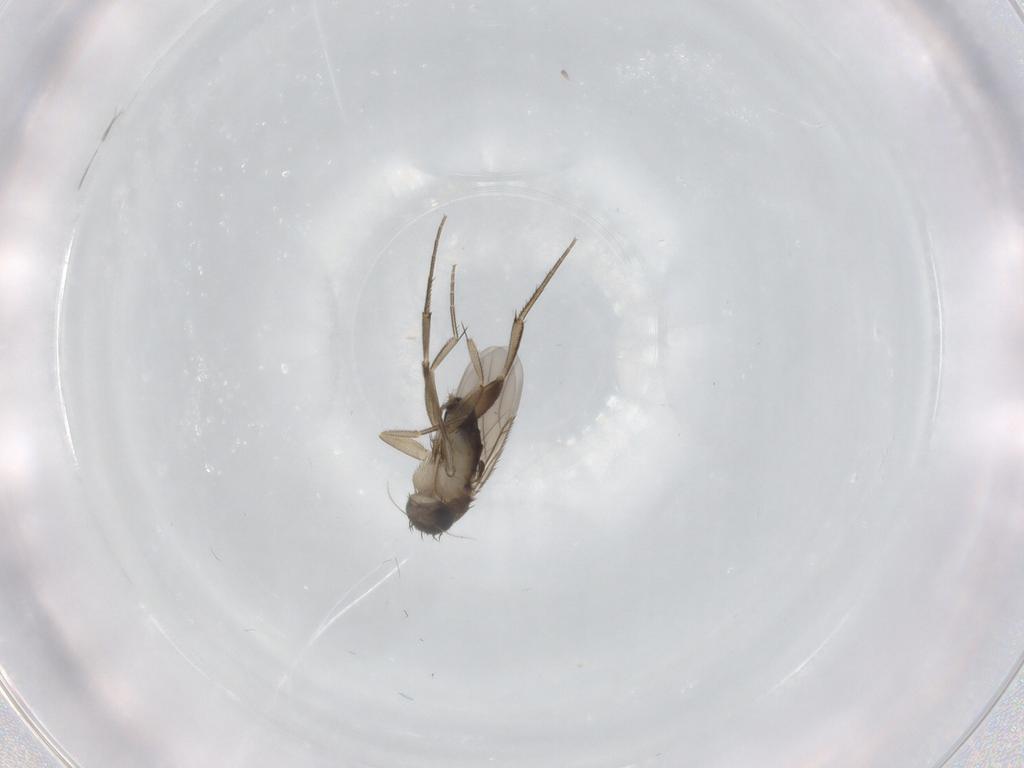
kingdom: Animalia
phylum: Arthropoda
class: Insecta
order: Diptera
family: Phoridae
